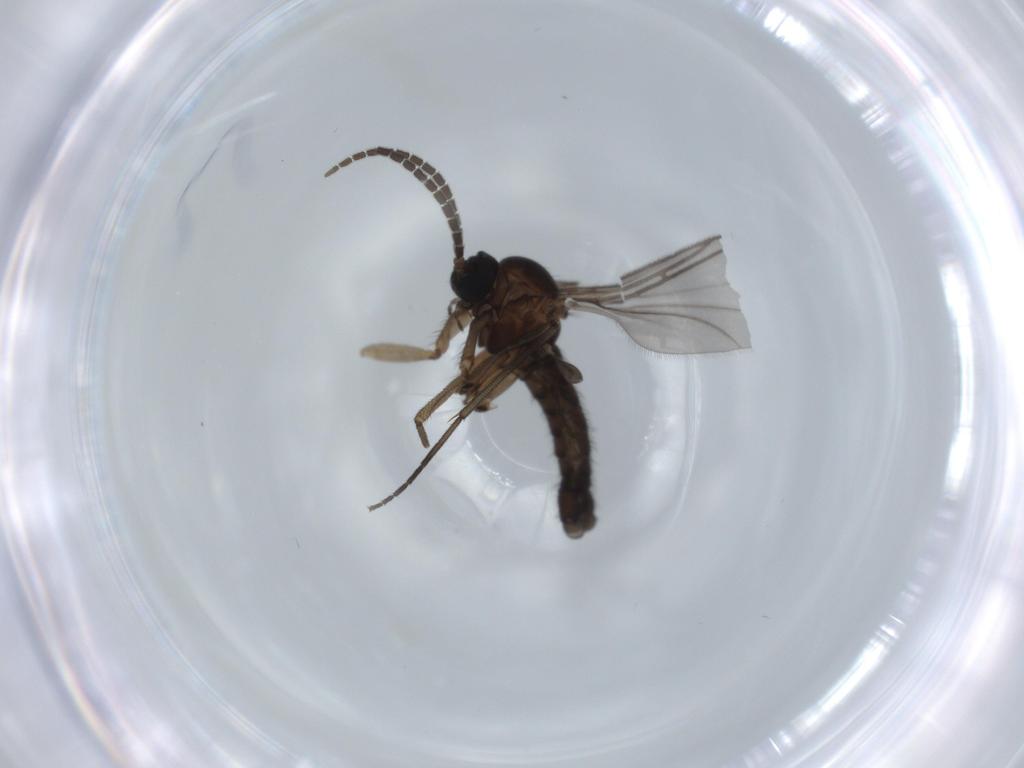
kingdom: Animalia
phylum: Arthropoda
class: Insecta
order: Diptera
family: Sciaridae
